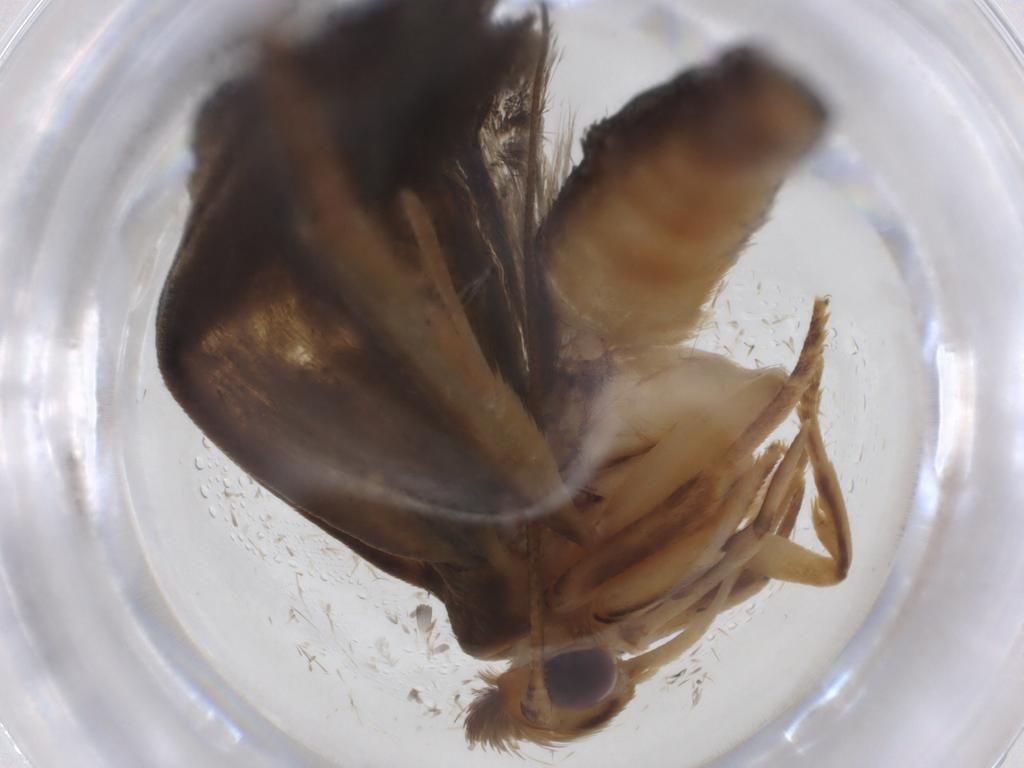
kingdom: Animalia
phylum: Arthropoda
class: Insecta
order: Lepidoptera
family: Depressariidae
